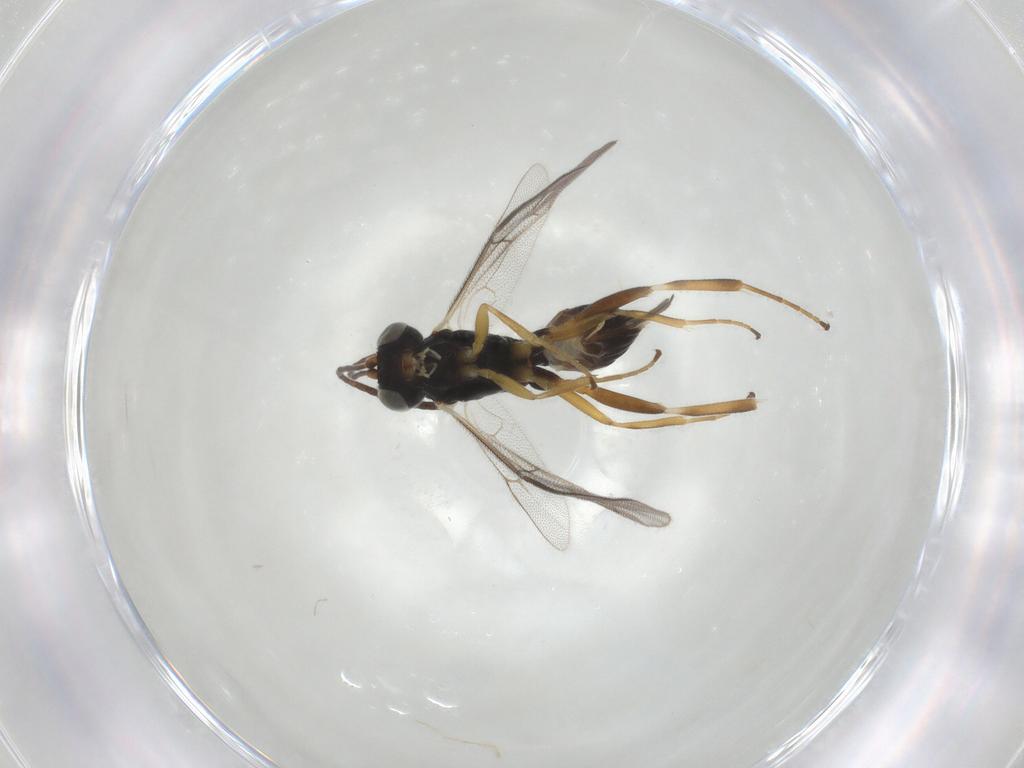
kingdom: Animalia
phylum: Arthropoda
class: Insecta
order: Hymenoptera
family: Ichneumonidae
